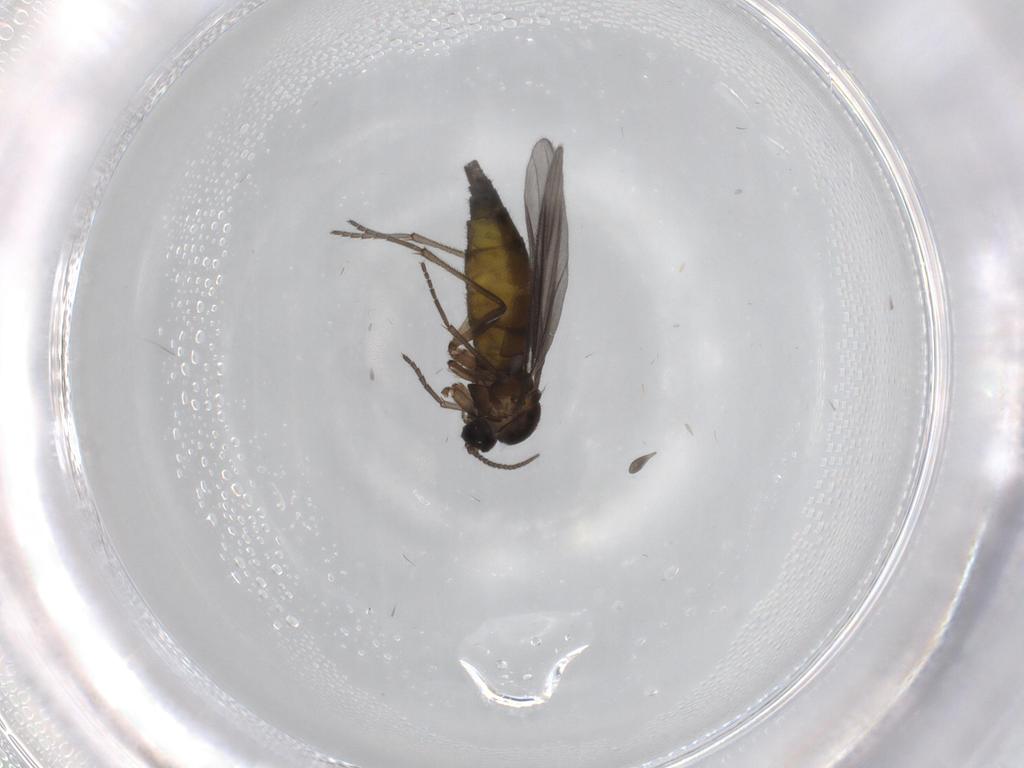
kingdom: Animalia
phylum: Arthropoda
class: Insecta
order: Diptera
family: Sciaridae
